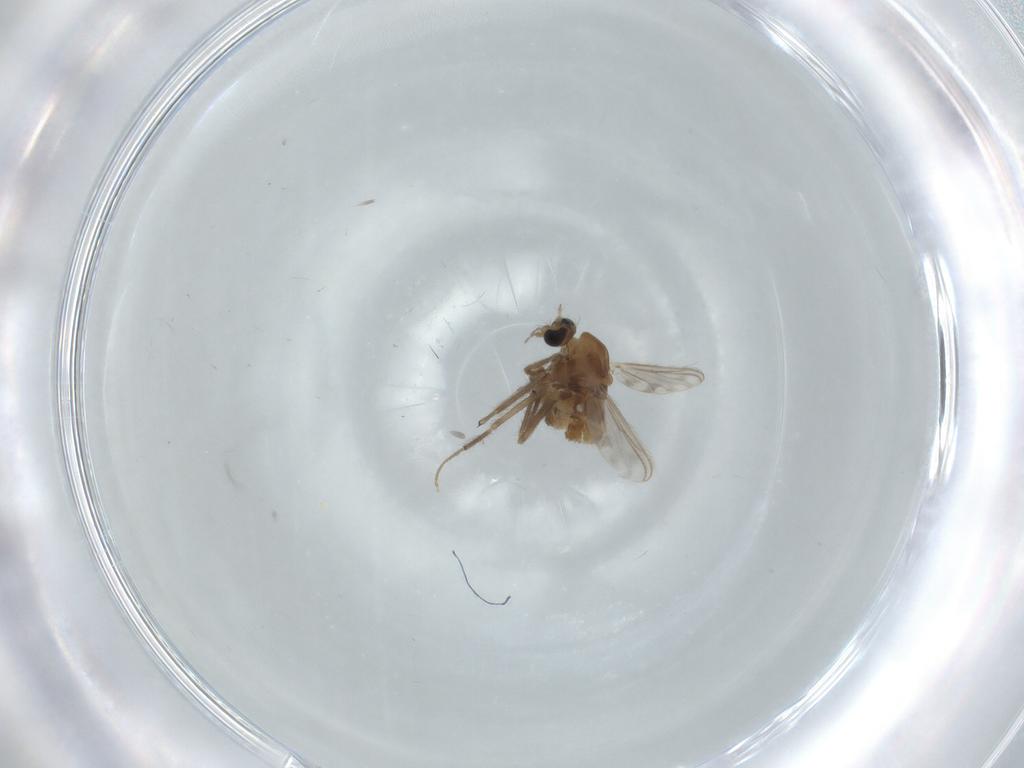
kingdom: Animalia
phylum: Arthropoda
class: Insecta
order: Diptera
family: Chironomidae
